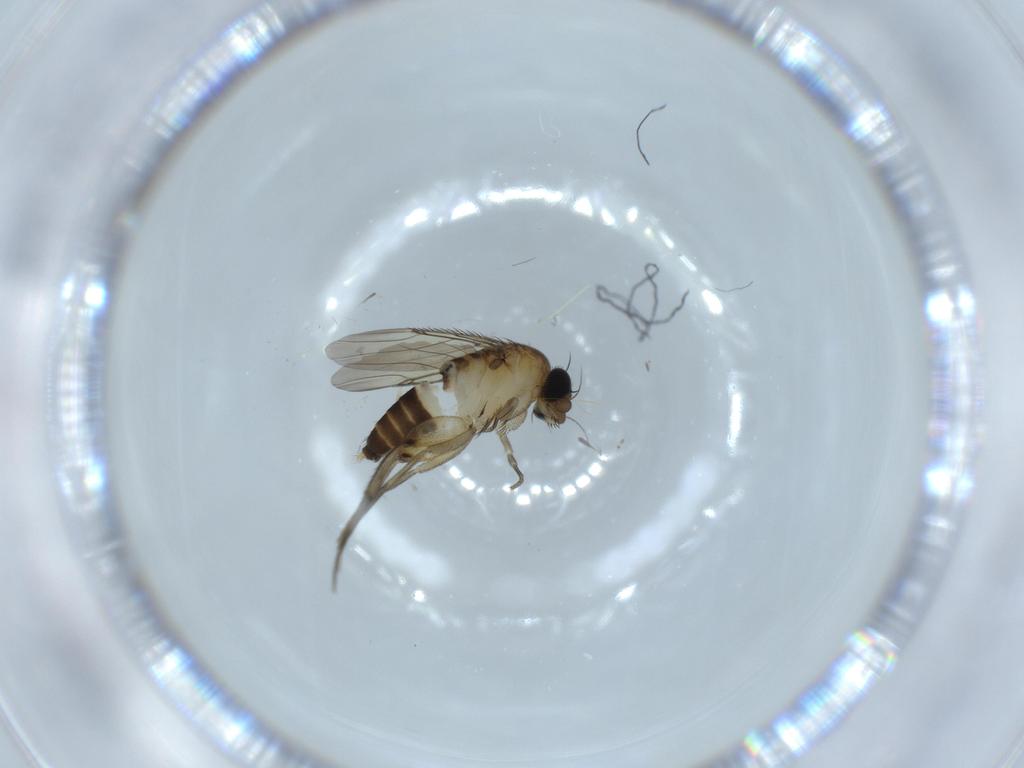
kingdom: Animalia
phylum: Arthropoda
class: Insecta
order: Diptera
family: Phoridae
